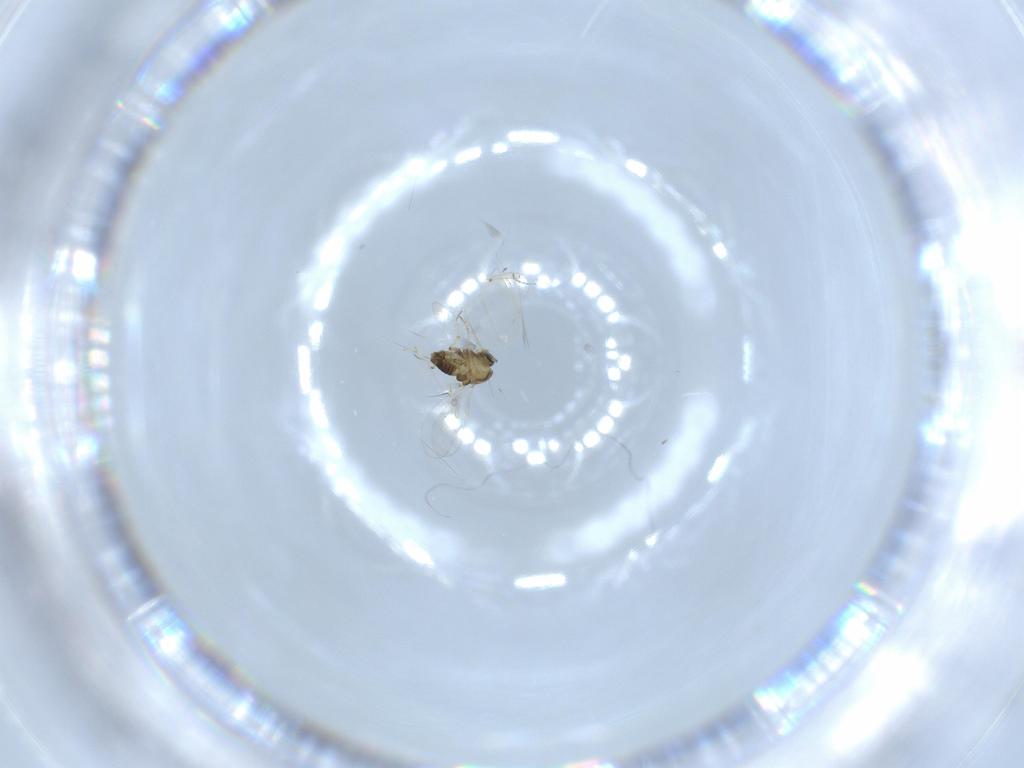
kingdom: Animalia
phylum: Arthropoda
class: Insecta
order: Diptera
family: Chironomidae
